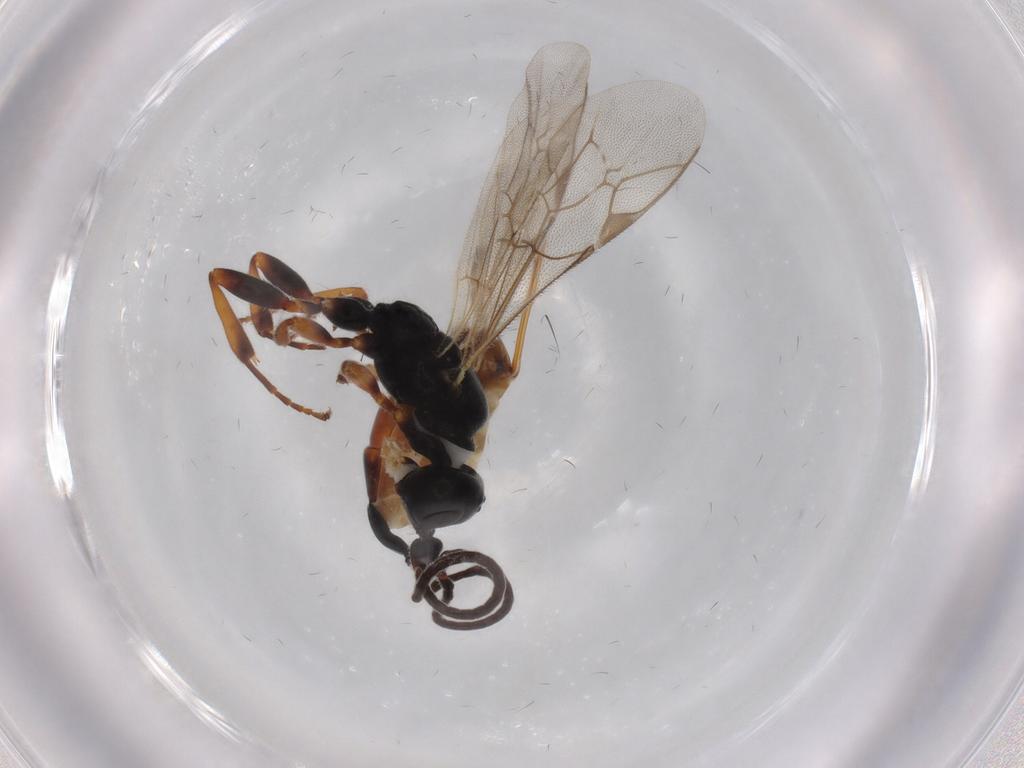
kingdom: Animalia
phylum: Arthropoda
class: Insecta
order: Hymenoptera
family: Ichneumonidae
